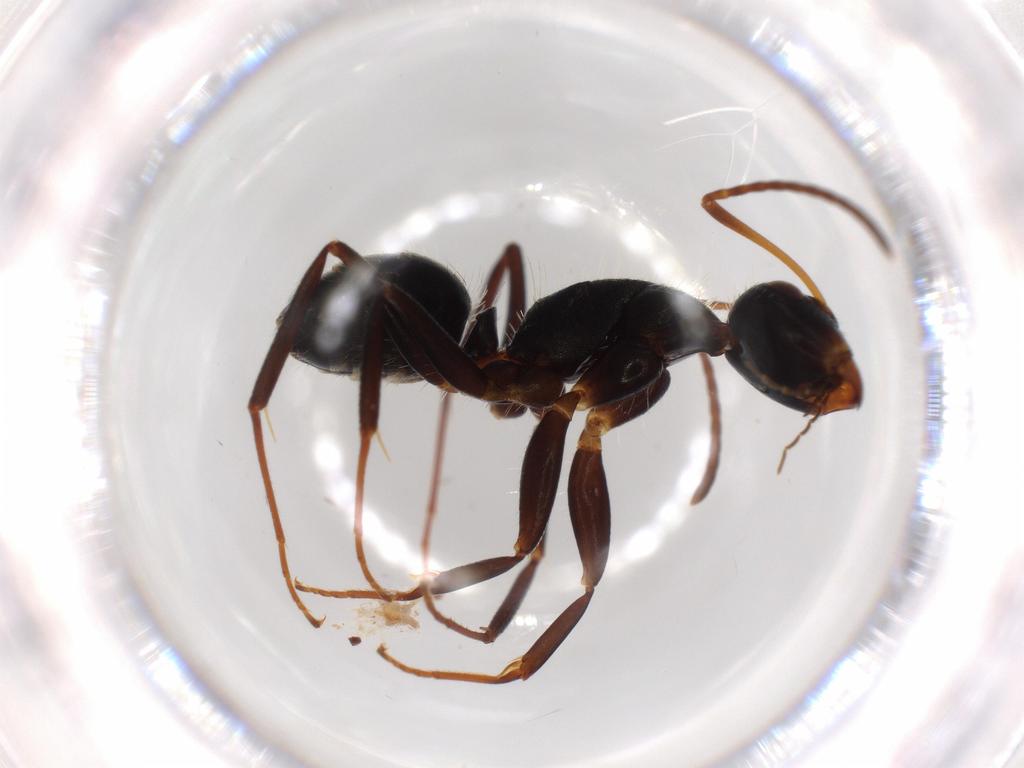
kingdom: Animalia
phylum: Arthropoda
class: Insecta
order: Hymenoptera
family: Formicidae
